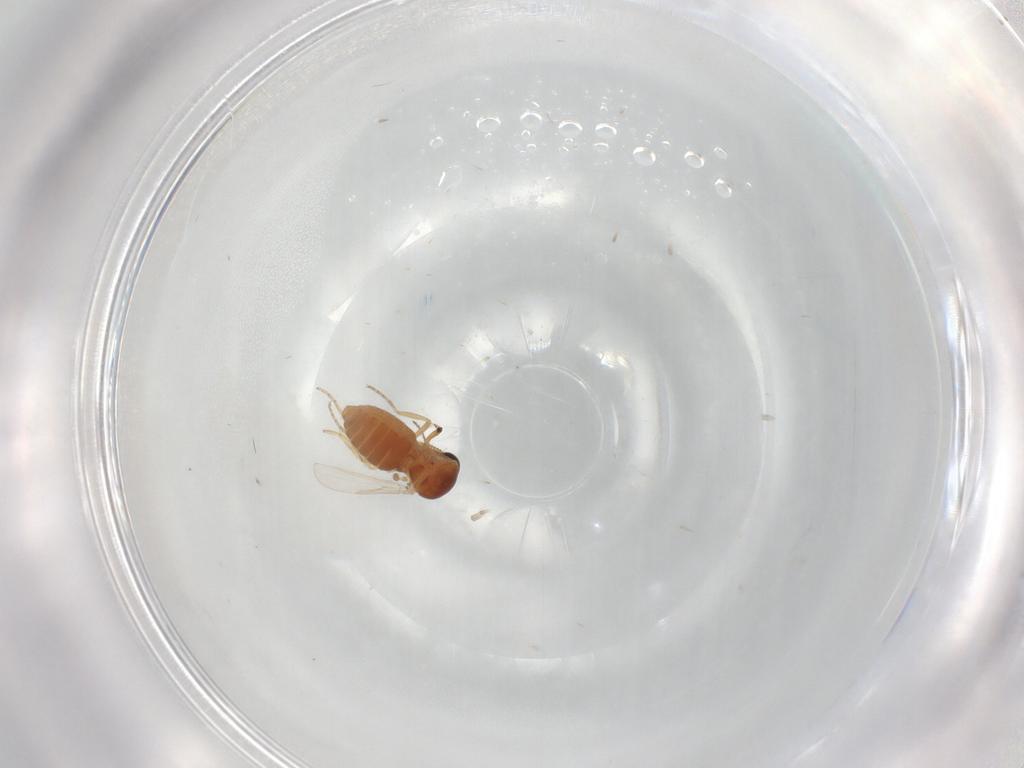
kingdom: Animalia
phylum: Arthropoda
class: Insecta
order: Diptera
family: Ceratopogonidae
